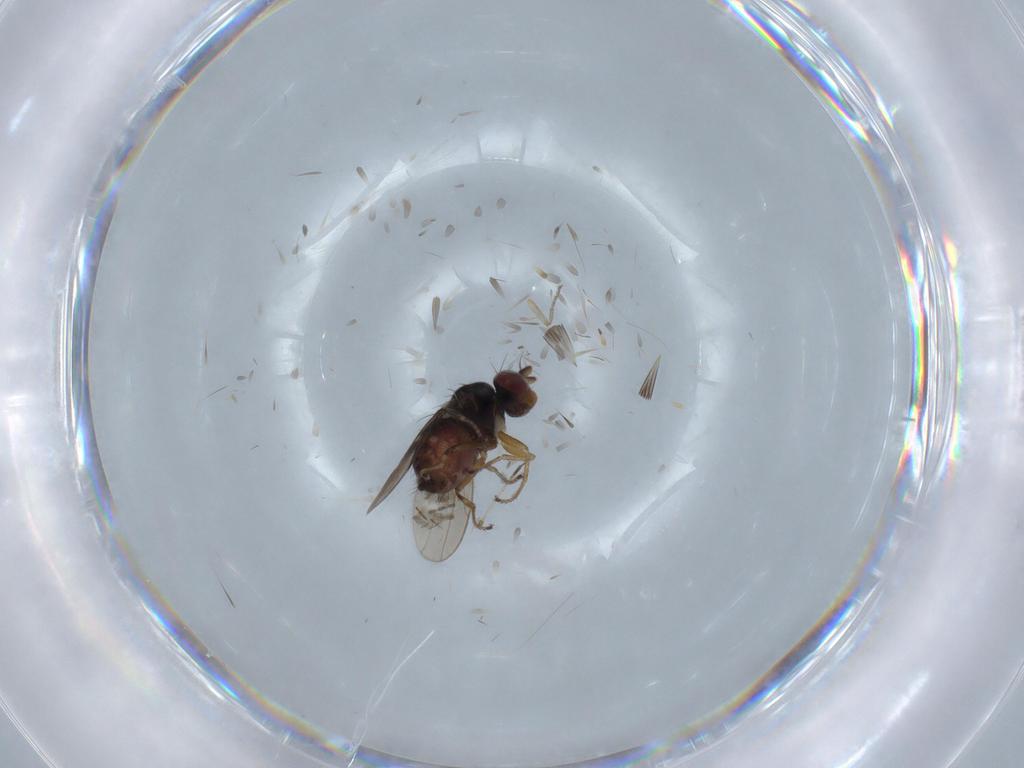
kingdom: Animalia
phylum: Arthropoda
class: Insecta
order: Diptera
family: Ephydridae
